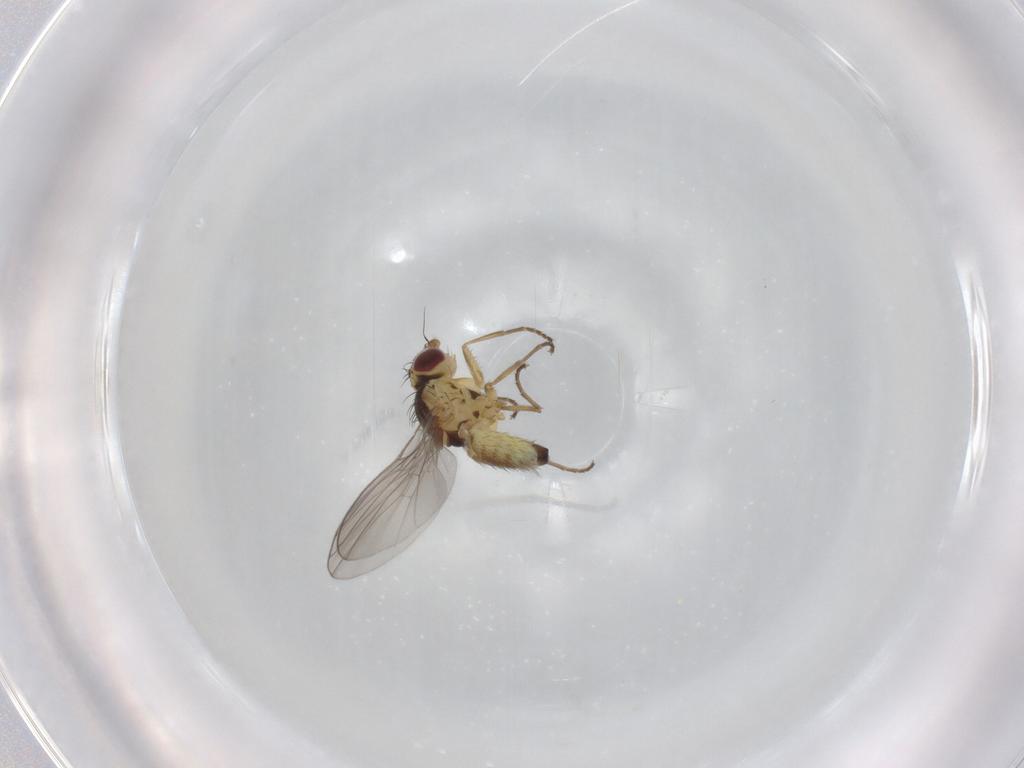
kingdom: Animalia
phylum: Arthropoda
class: Insecta
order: Diptera
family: Agromyzidae
